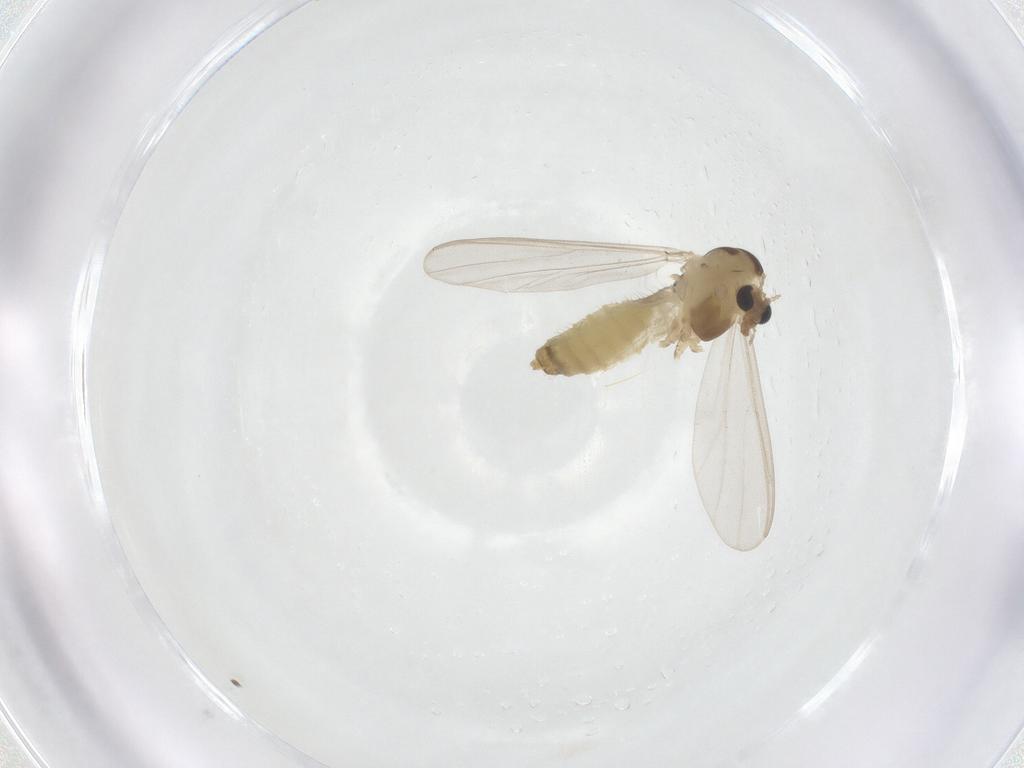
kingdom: Animalia
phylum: Arthropoda
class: Insecta
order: Diptera
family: Chironomidae
